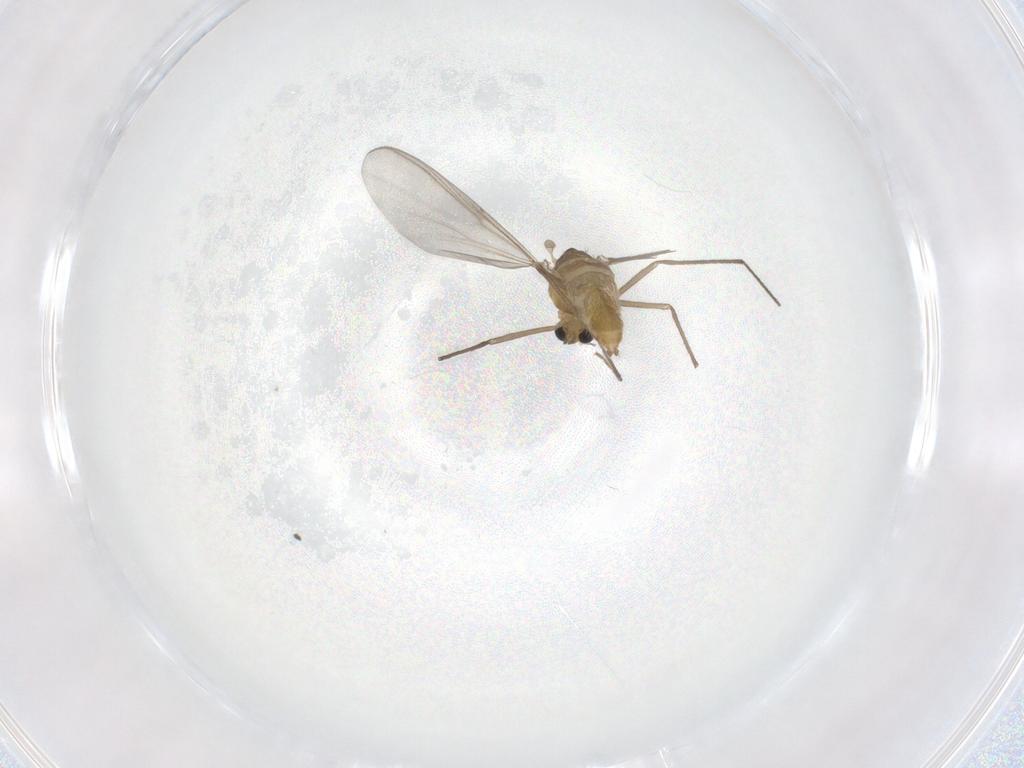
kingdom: Animalia
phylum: Arthropoda
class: Insecta
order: Diptera
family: Chironomidae
